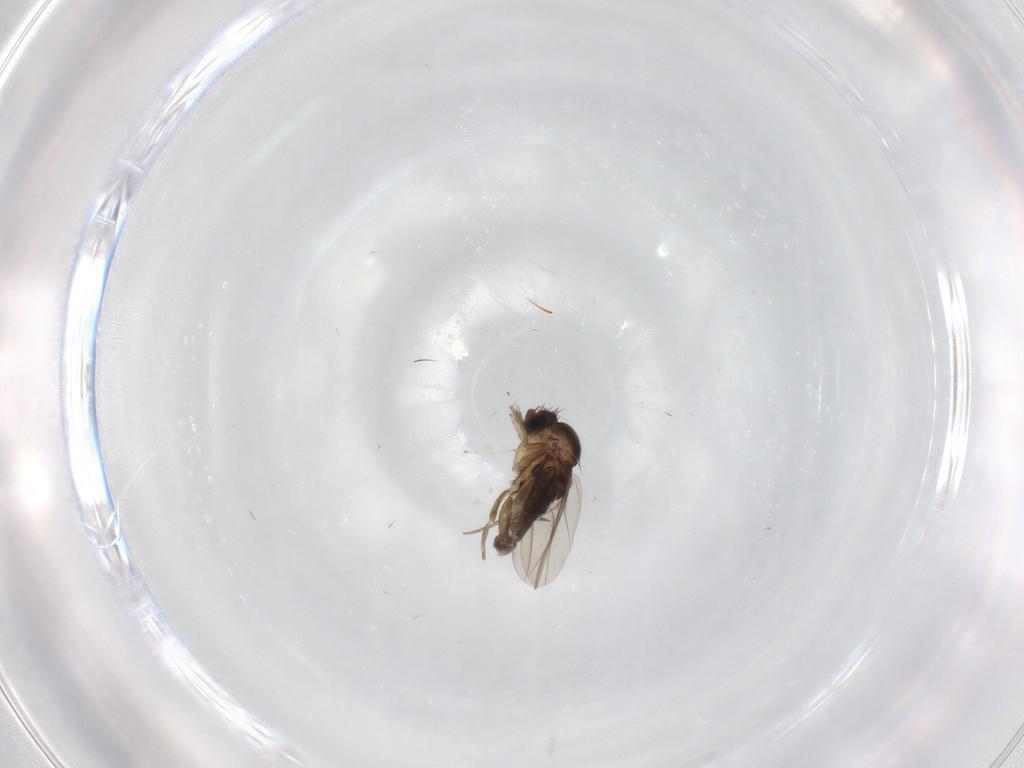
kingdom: Animalia
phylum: Arthropoda
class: Insecta
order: Diptera
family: Phoridae
